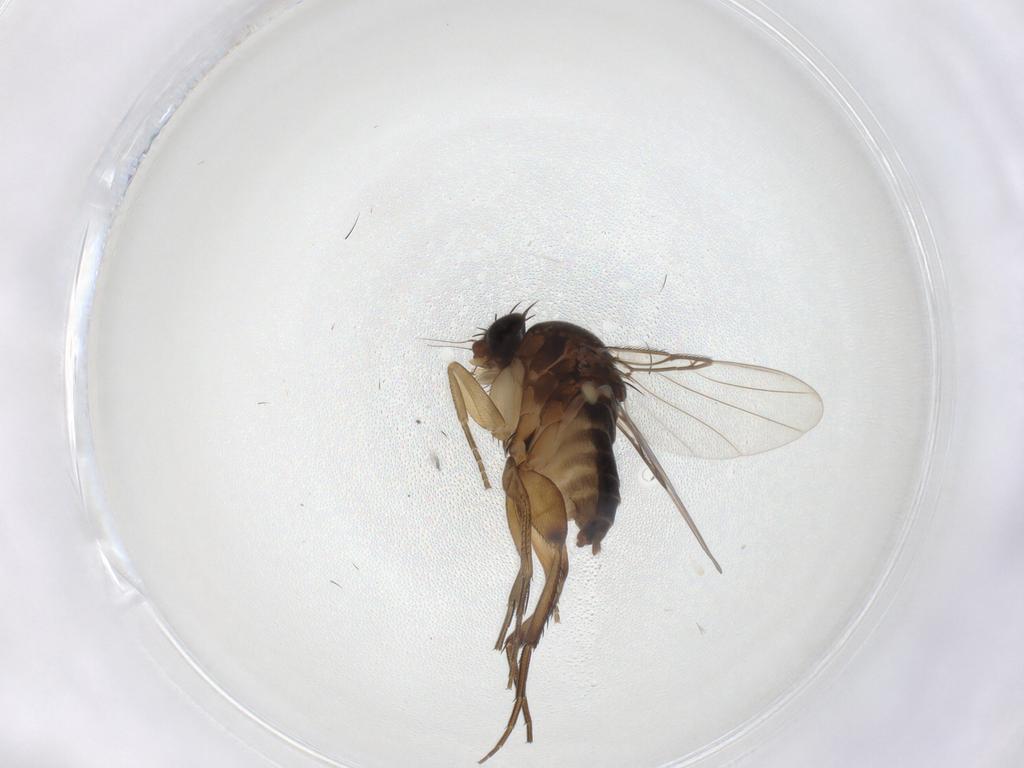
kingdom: Animalia
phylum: Arthropoda
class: Insecta
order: Diptera
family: Phoridae
